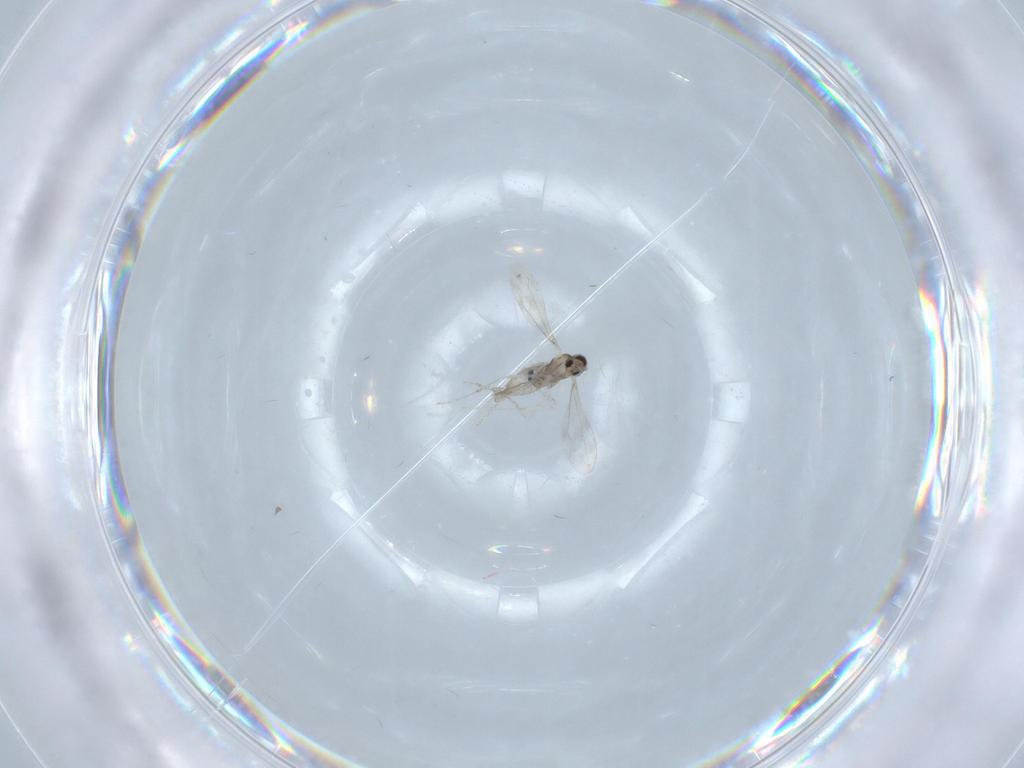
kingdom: Animalia
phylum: Arthropoda
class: Insecta
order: Diptera
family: Cecidomyiidae
